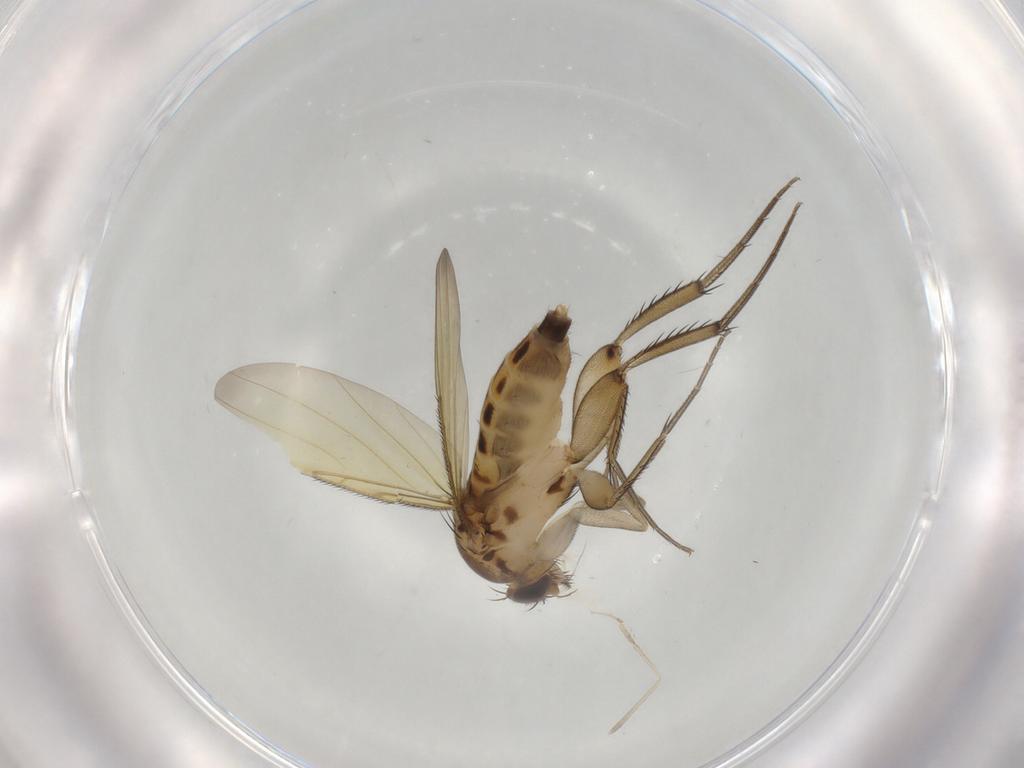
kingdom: Animalia
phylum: Arthropoda
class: Insecta
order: Diptera
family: Phoridae
